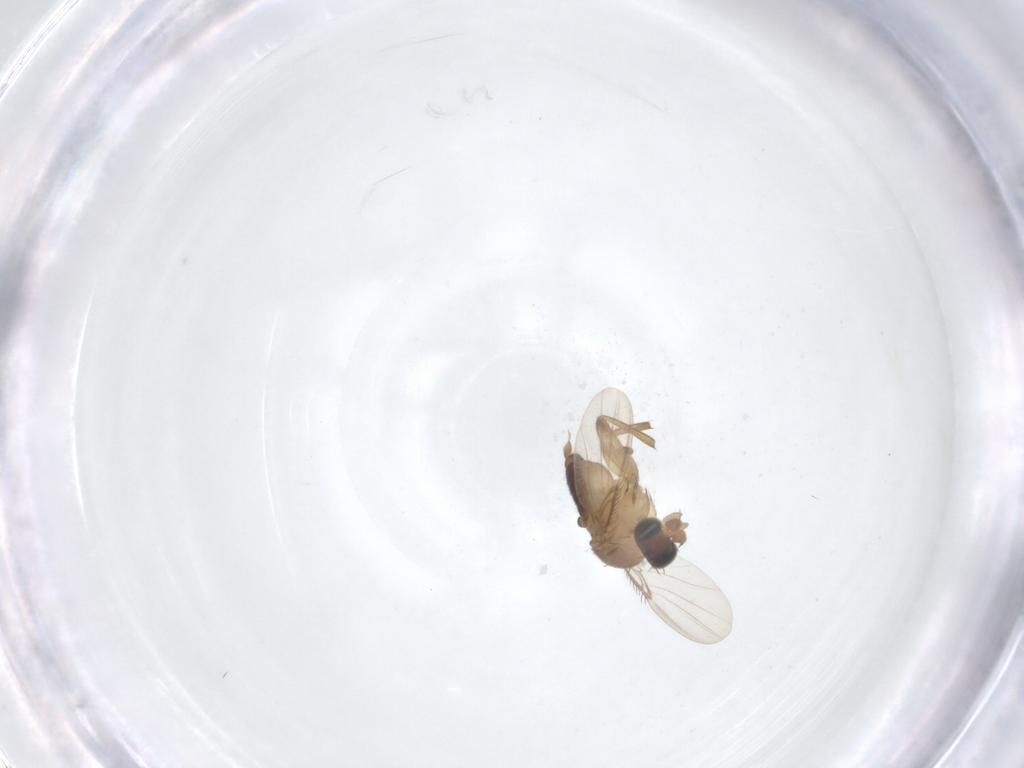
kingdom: Animalia
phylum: Arthropoda
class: Insecta
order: Diptera
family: Phoridae
